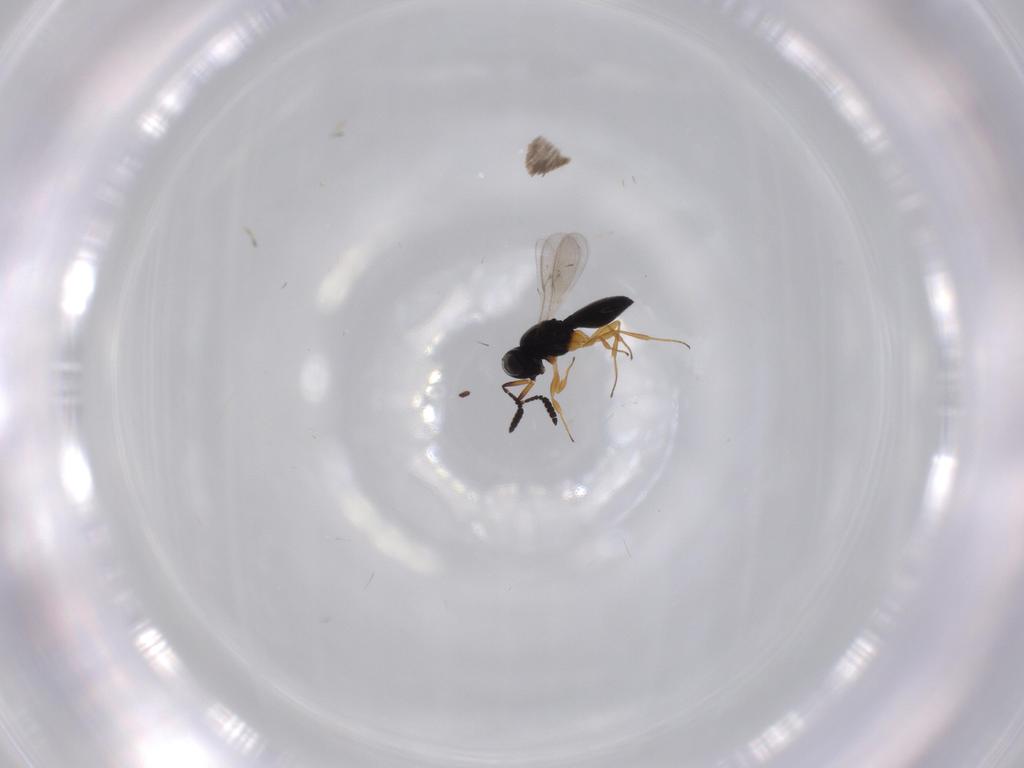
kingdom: Animalia
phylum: Arthropoda
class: Insecta
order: Hymenoptera
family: Scelionidae
